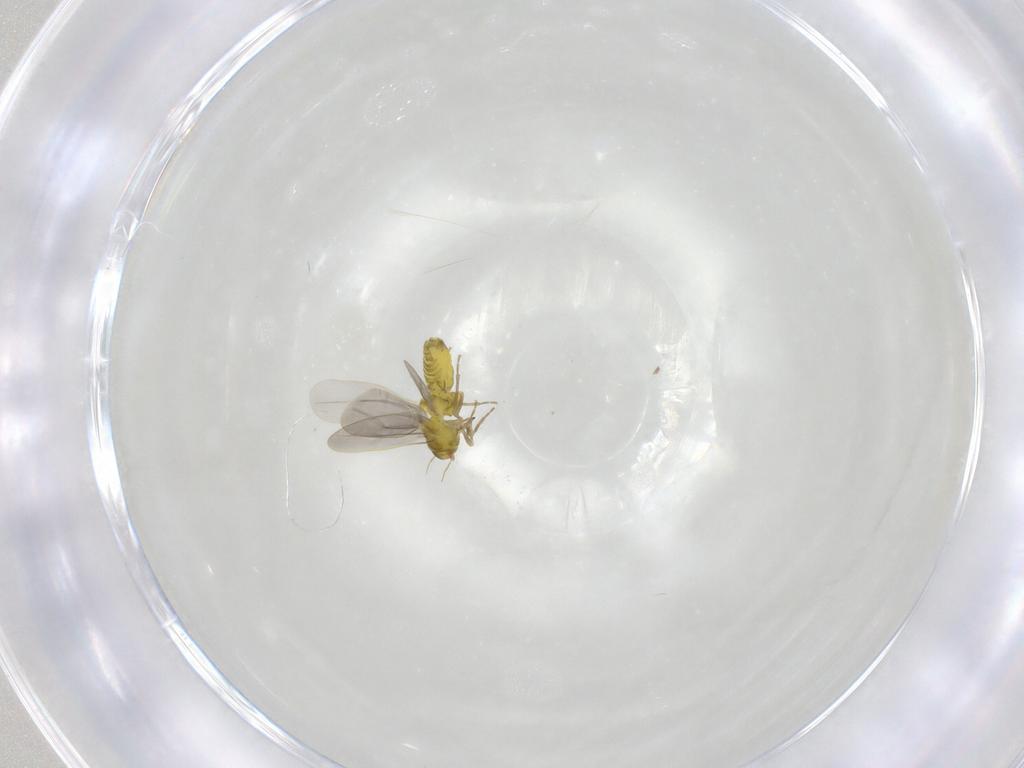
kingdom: Animalia
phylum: Arthropoda
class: Insecta
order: Hemiptera
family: Aleyrodidae
